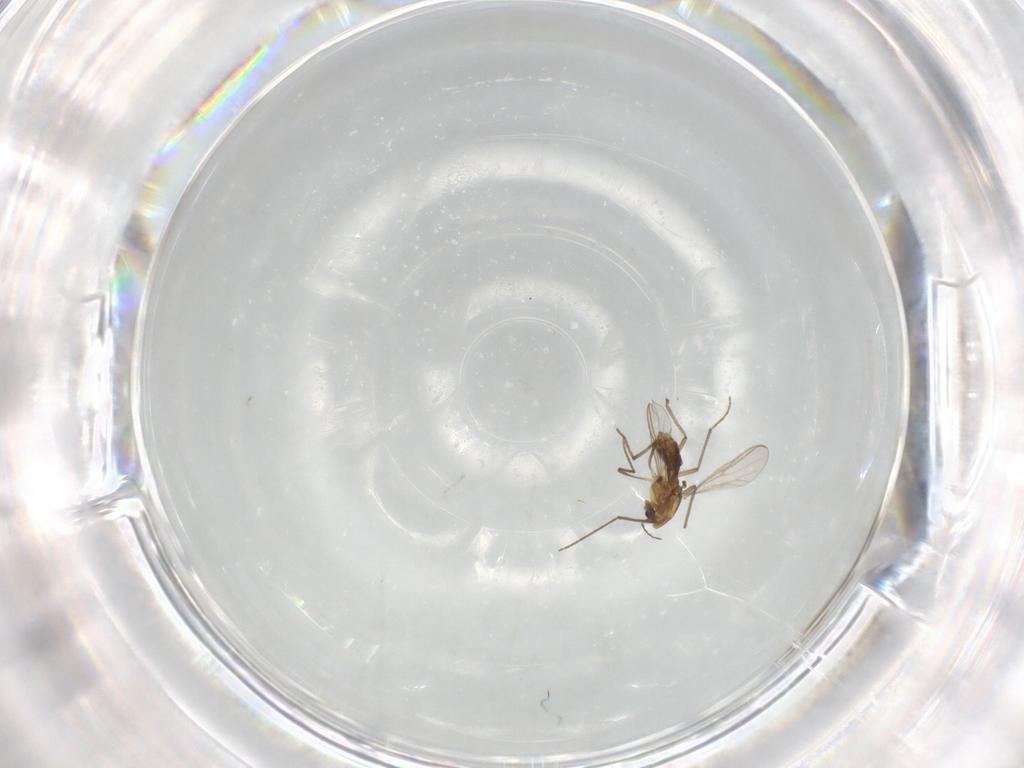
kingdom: Animalia
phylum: Arthropoda
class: Insecta
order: Diptera
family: Chironomidae
